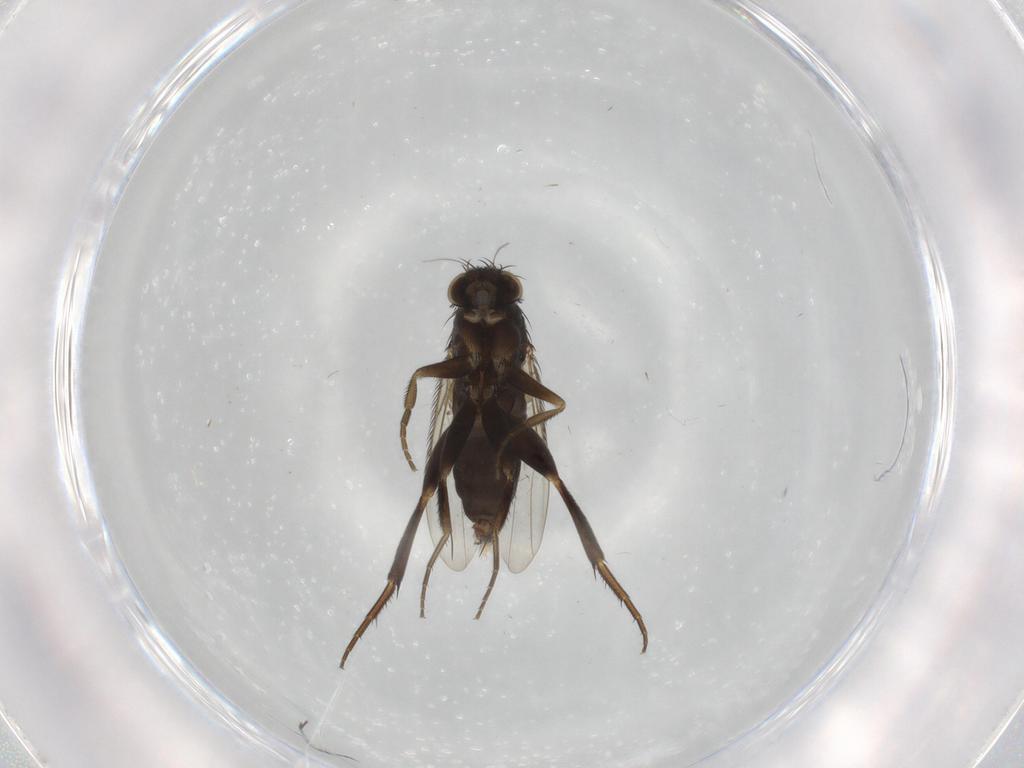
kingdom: Animalia
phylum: Arthropoda
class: Insecta
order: Diptera
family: Phoridae
